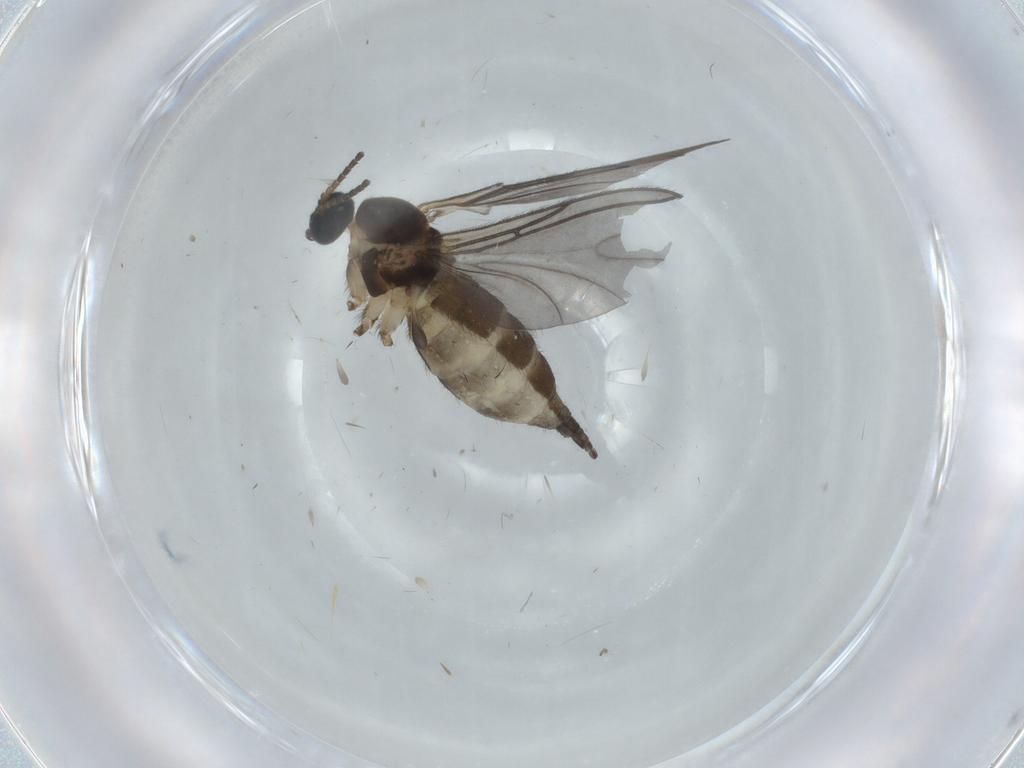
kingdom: Animalia
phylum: Arthropoda
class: Insecta
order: Diptera
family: Sciaridae
